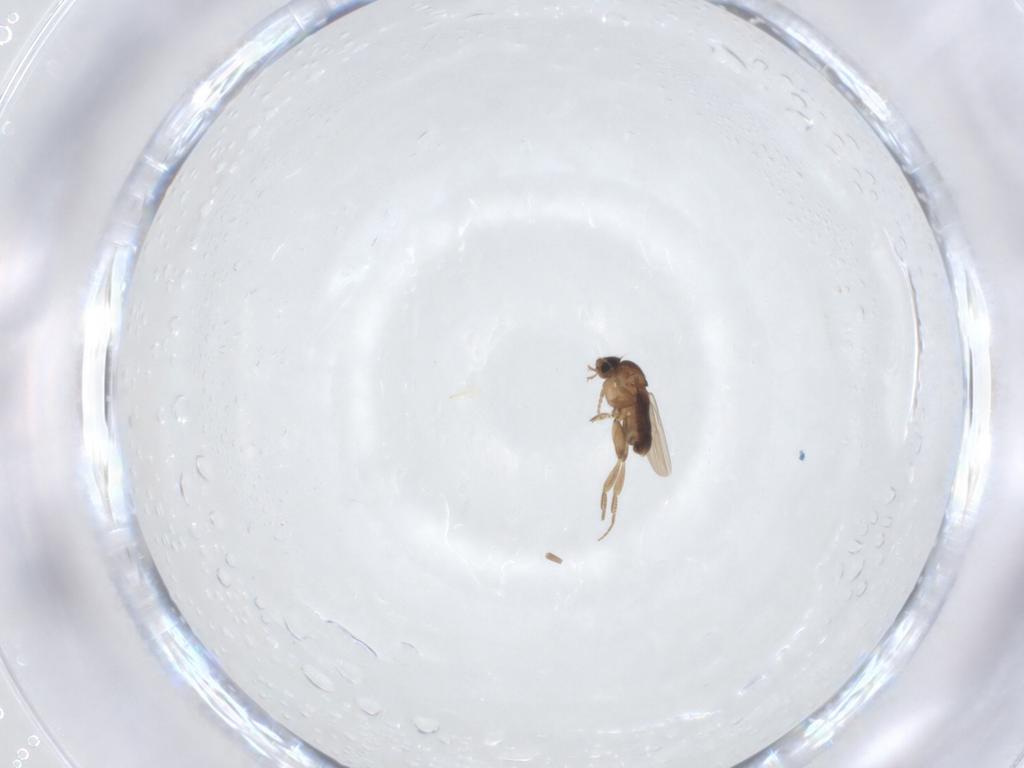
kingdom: Animalia
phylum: Arthropoda
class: Insecta
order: Diptera
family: Phoridae
